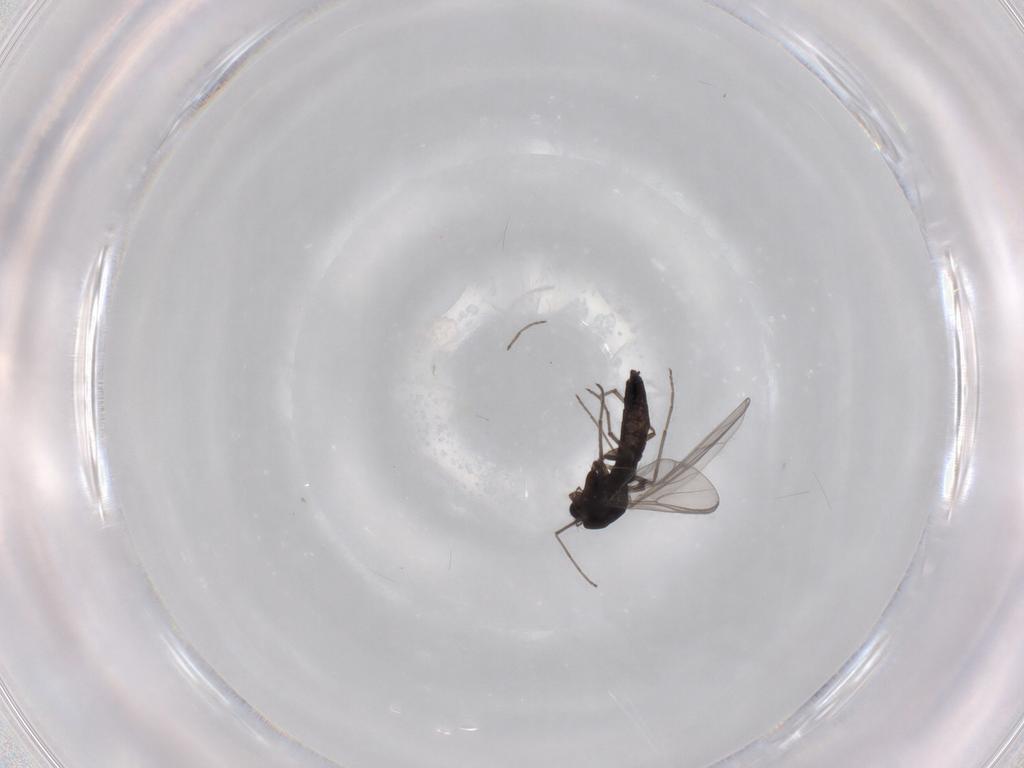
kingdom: Animalia
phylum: Arthropoda
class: Insecta
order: Diptera
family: Chironomidae
